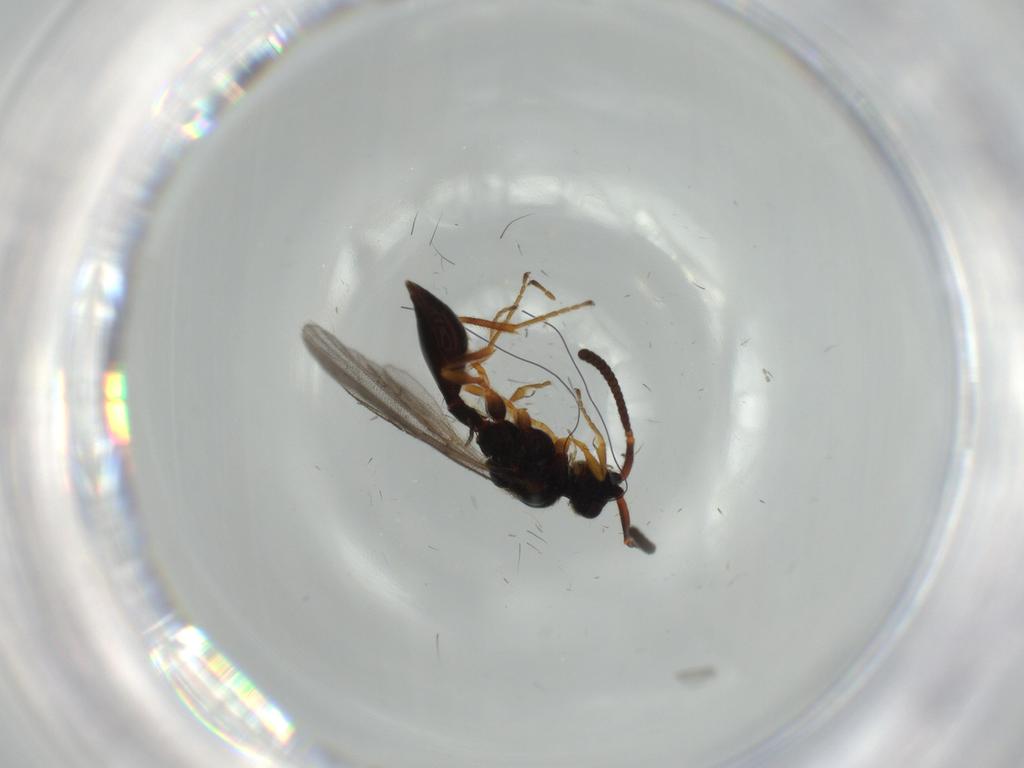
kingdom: Animalia
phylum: Arthropoda
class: Insecta
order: Hymenoptera
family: Diapriidae
